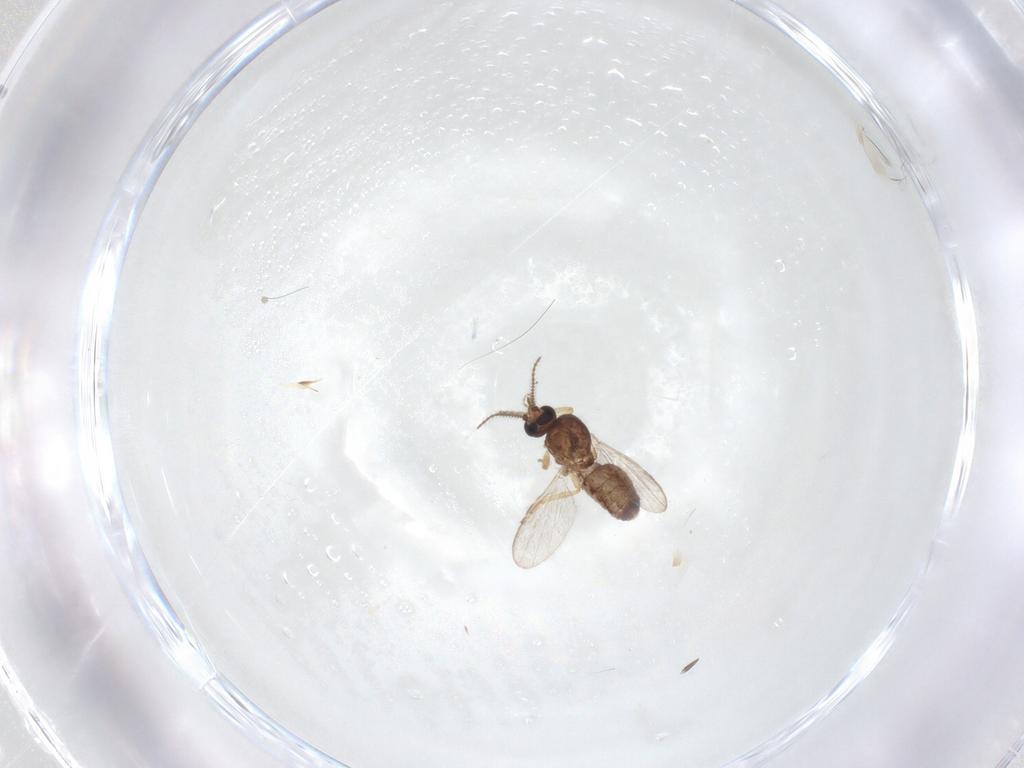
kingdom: Animalia
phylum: Arthropoda
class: Insecta
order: Diptera
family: Ceratopogonidae
